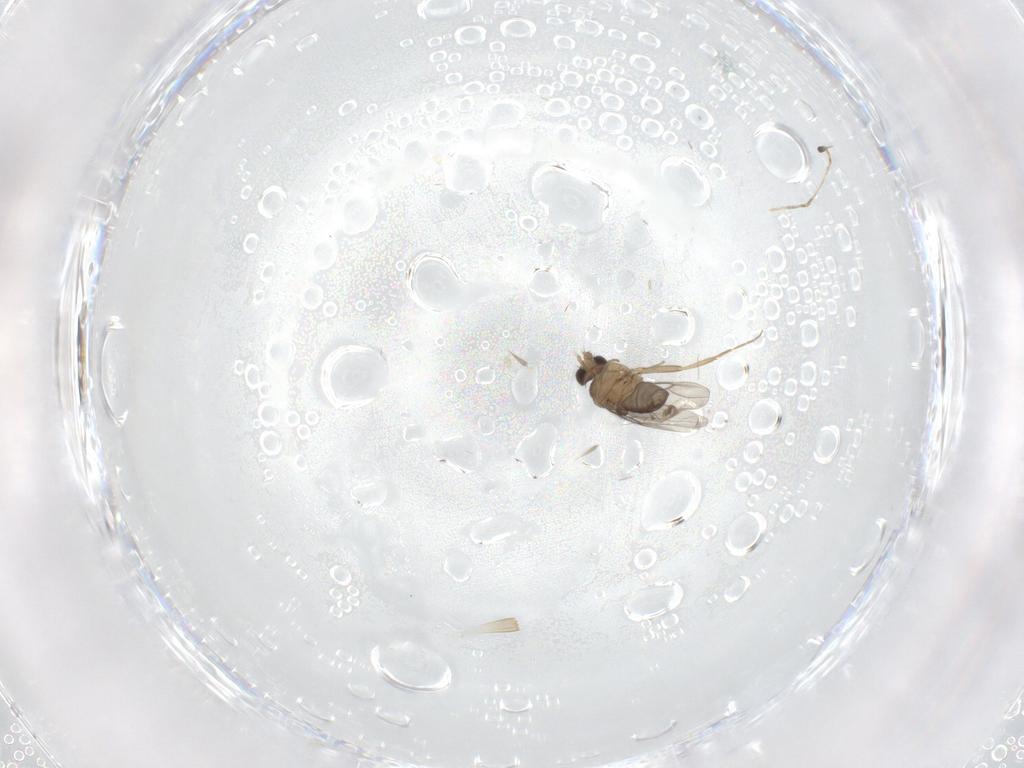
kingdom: Animalia
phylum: Arthropoda
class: Insecta
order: Diptera
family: Cecidomyiidae
